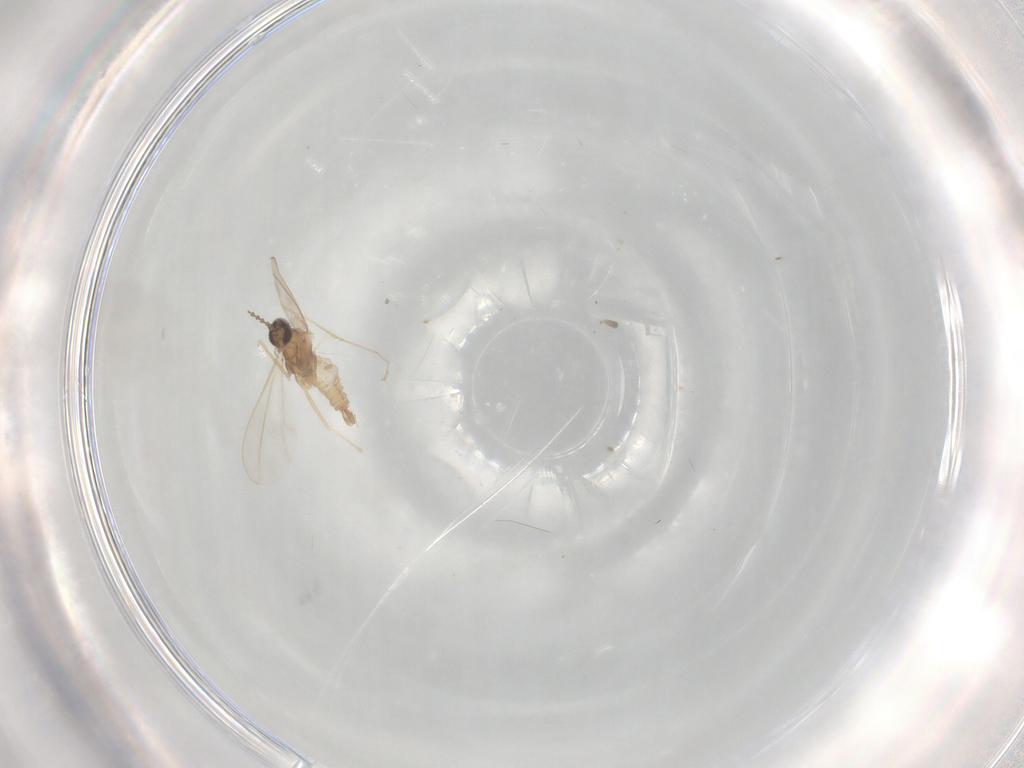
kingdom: Animalia
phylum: Arthropoda
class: Insecta
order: Diptera
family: Cecidomyiidae
